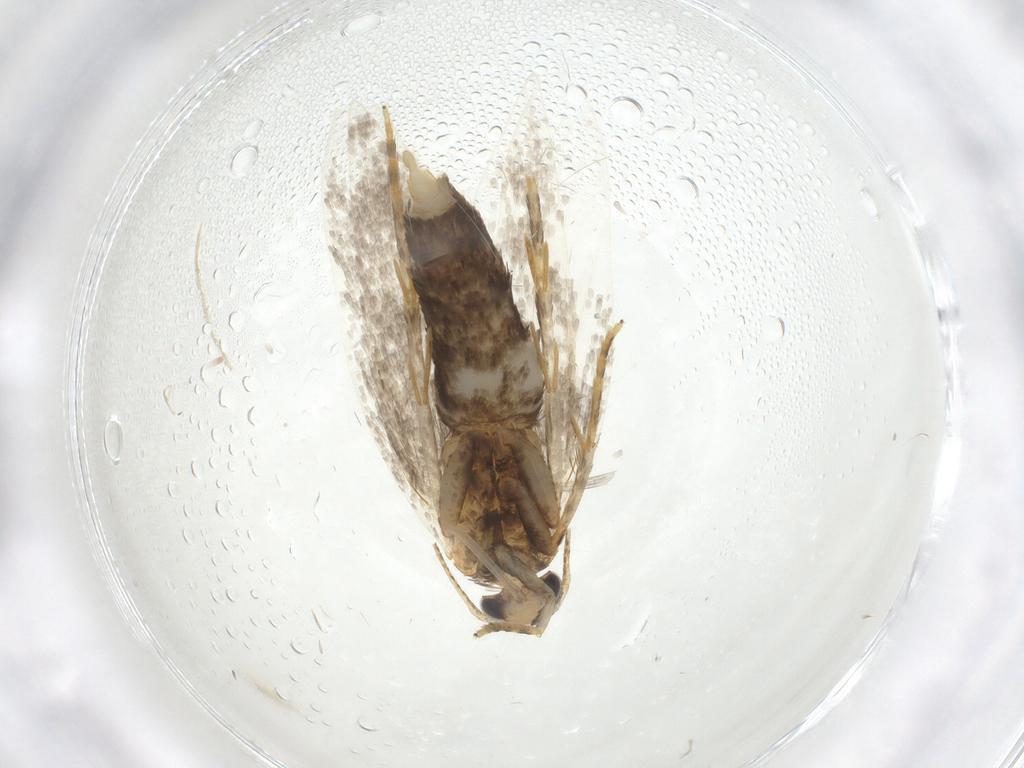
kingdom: Animalia
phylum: Arthropoda
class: Insecta
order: Lepidoptera
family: Autostichidae
